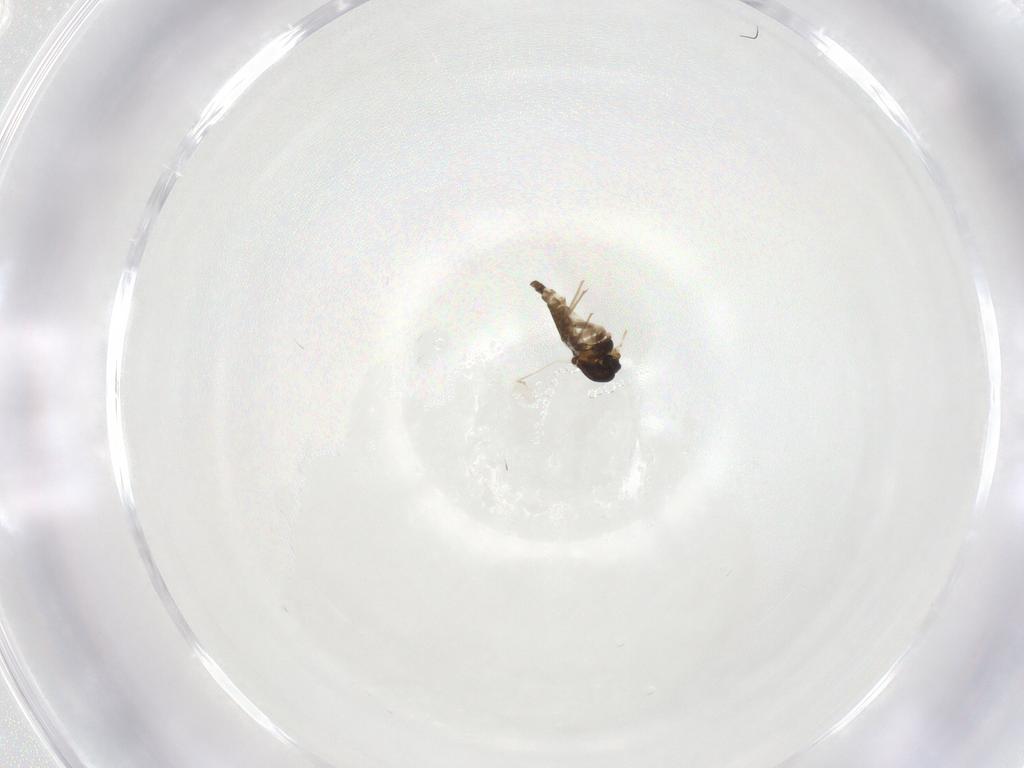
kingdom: Animalia
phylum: Arthropoda
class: Insecta
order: Diptera
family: Chironomidae
